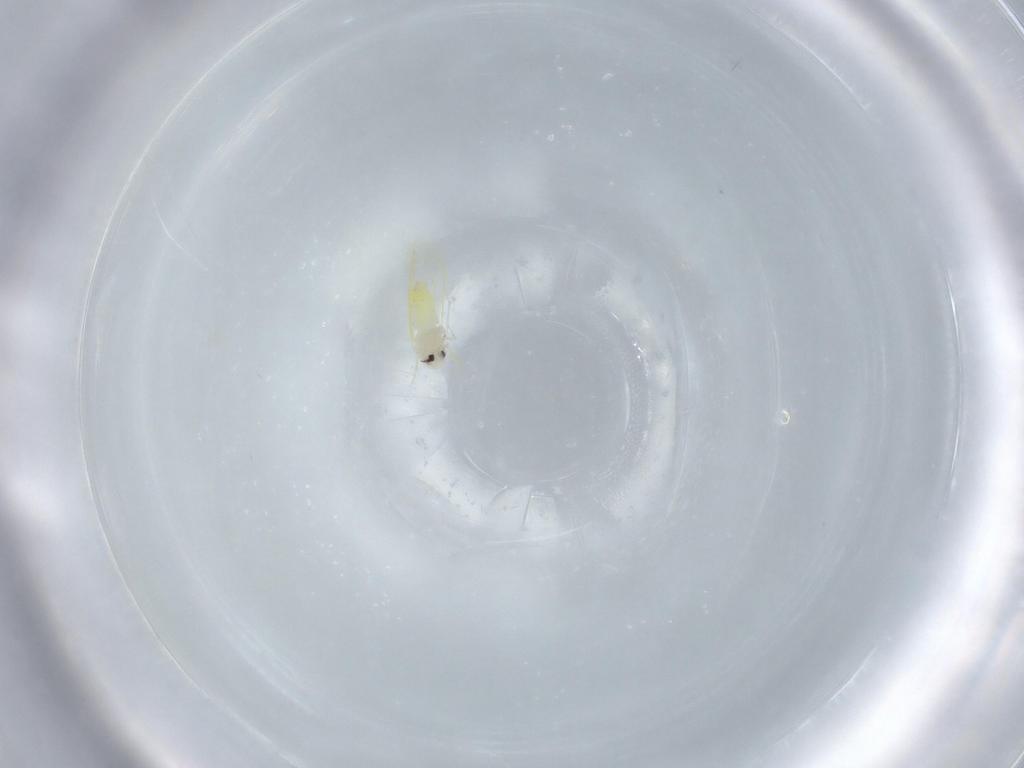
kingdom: Animalia
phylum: Arthropoda
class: Insecta
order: Hemiptera
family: Aleyrodidae
